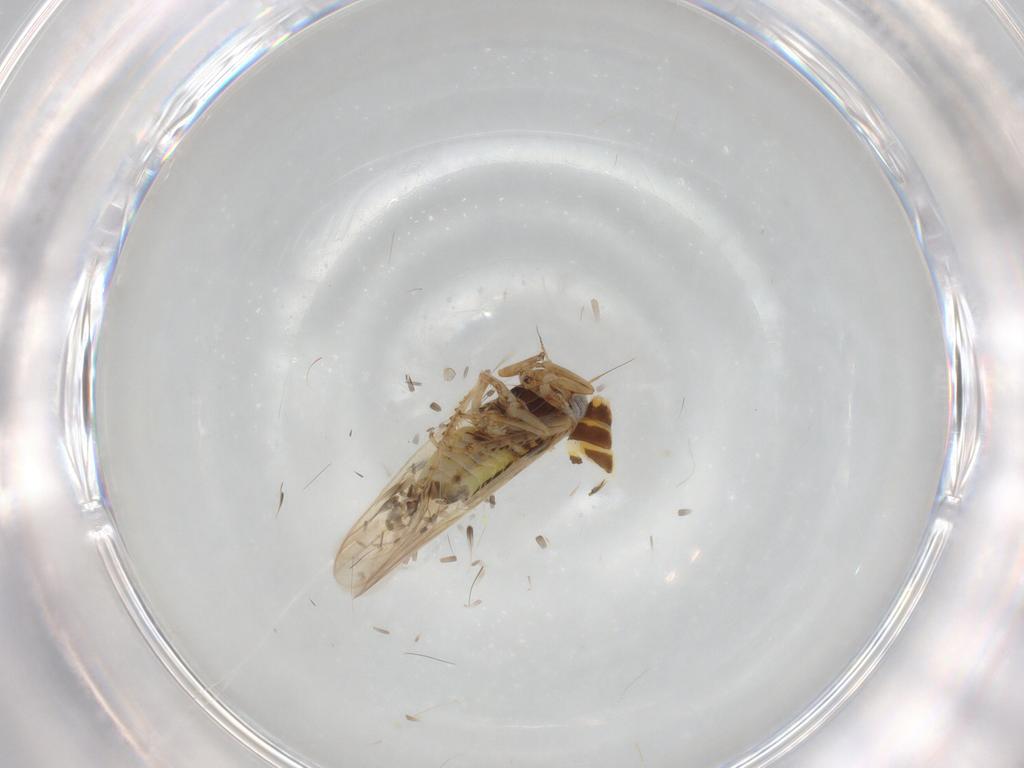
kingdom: Animalia
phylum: Arthropoda
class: Insecta
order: Hemiptera
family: Cicadellidae
